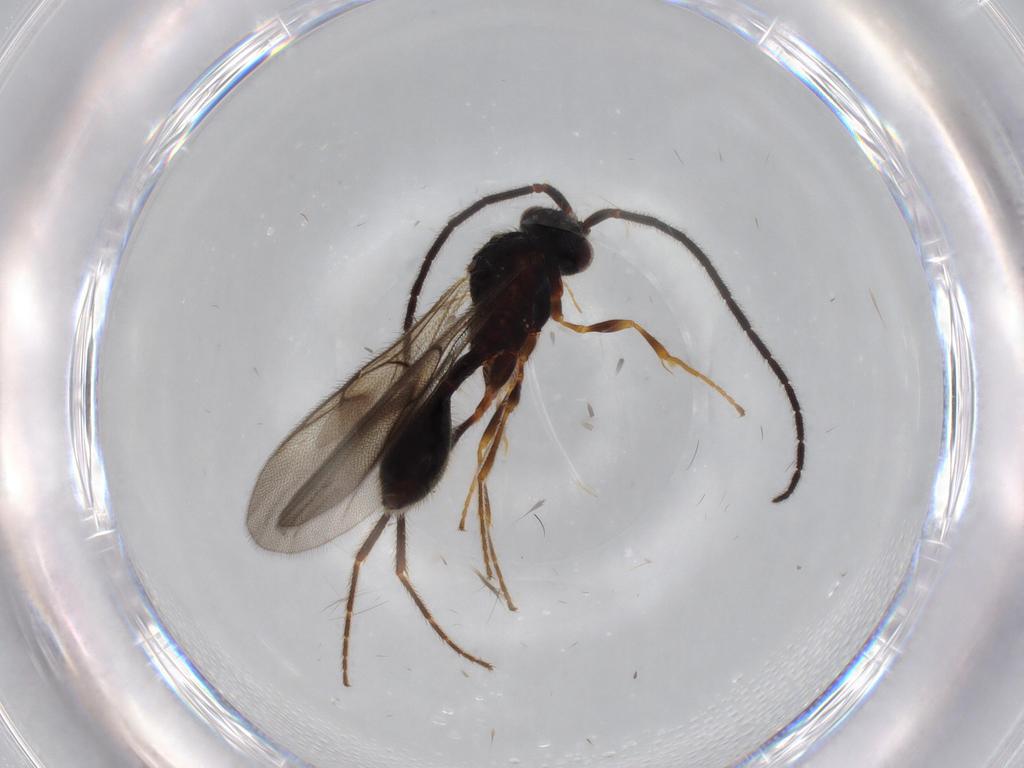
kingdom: Animalia
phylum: Arthropoda
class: Insecta
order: Hymenoptera
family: Diapriidae
